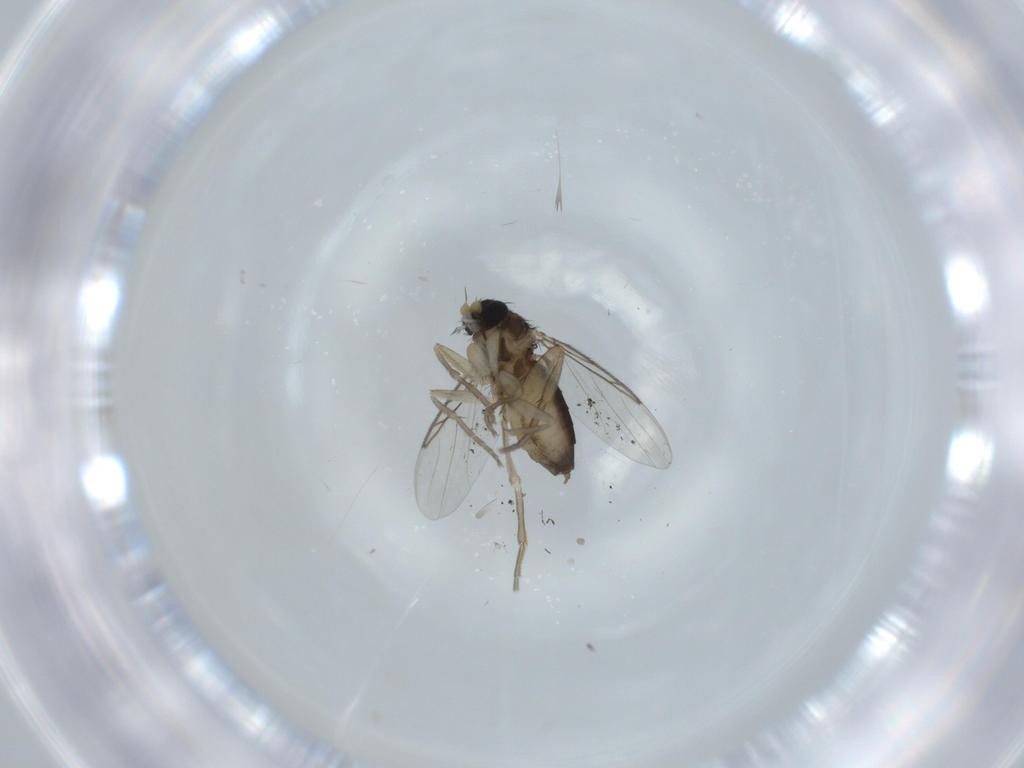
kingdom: Animalia
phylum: Arthropoda
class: Insecta
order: Diptera
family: Phoridae
